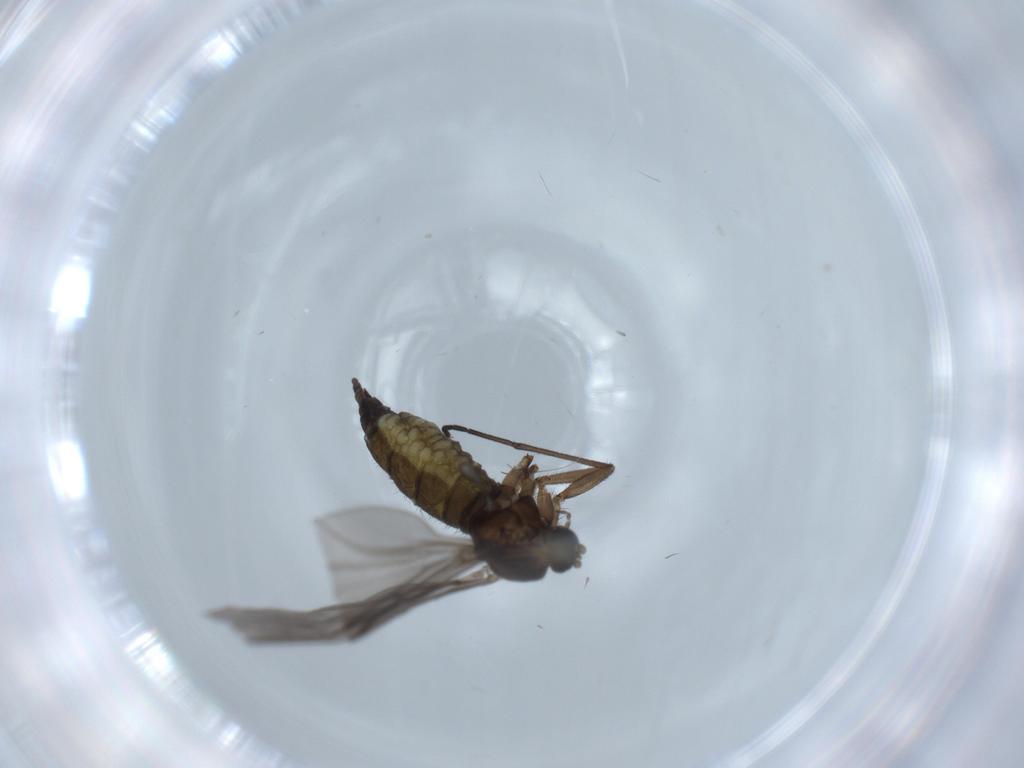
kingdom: Animalia
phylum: Arthropoda
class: Insecta
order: Diptera
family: Sciaridae
